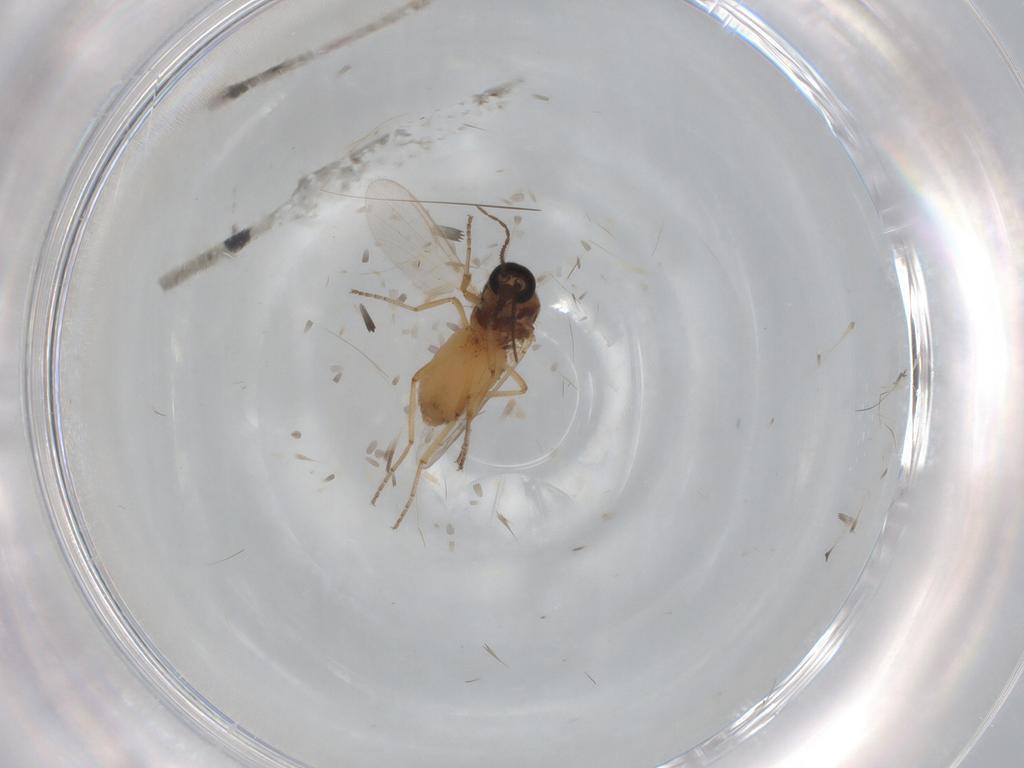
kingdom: Animalia
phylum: Arthropoda
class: Insecta
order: Diptera
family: Ceratopogonidae
